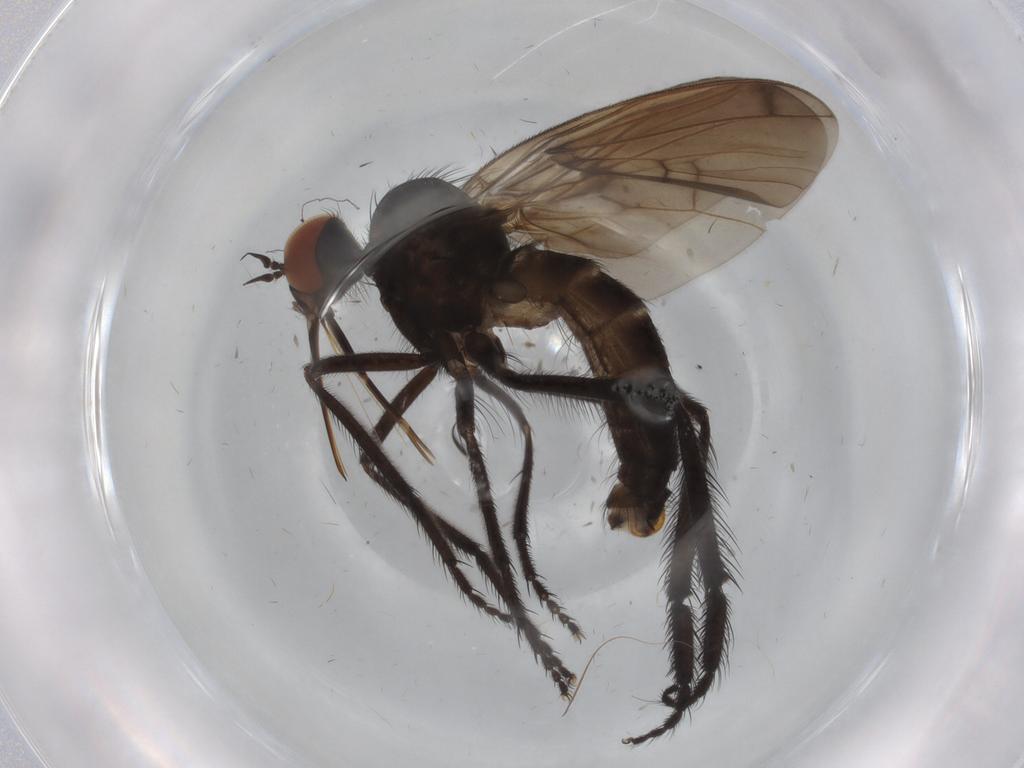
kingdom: Animalia
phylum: Arthropoda
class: Insecta
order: Diptera
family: Empididae
